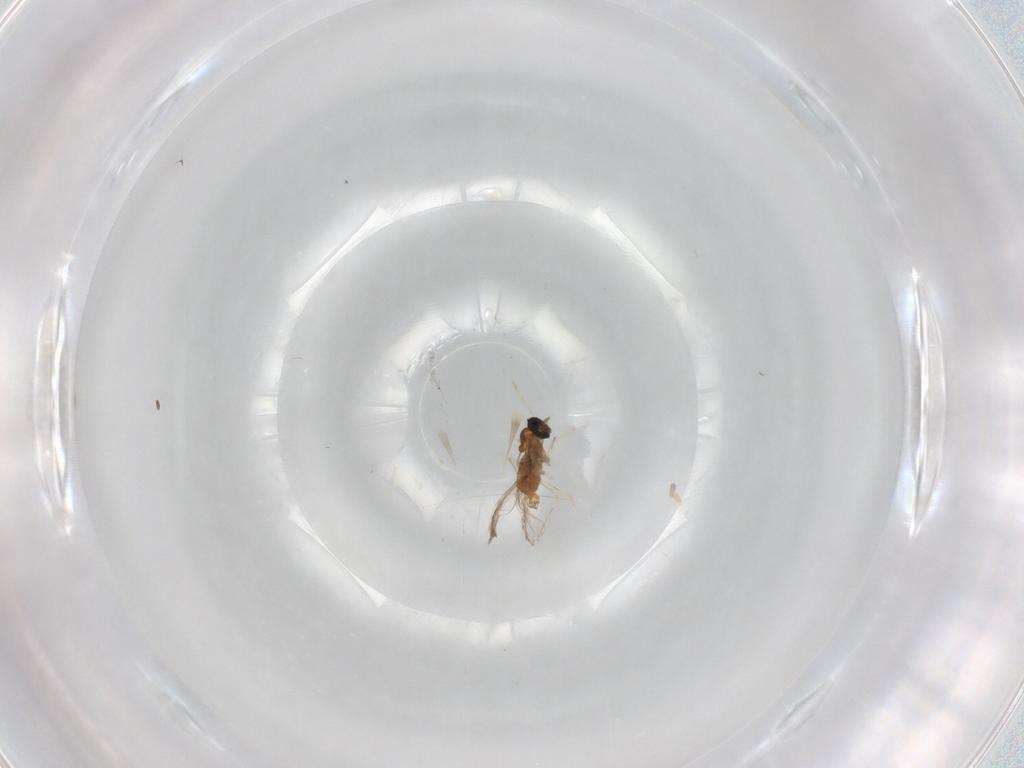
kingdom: Animalia
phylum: Arthropoda
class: Insecta
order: Diptera
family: Cecidomyiidae
